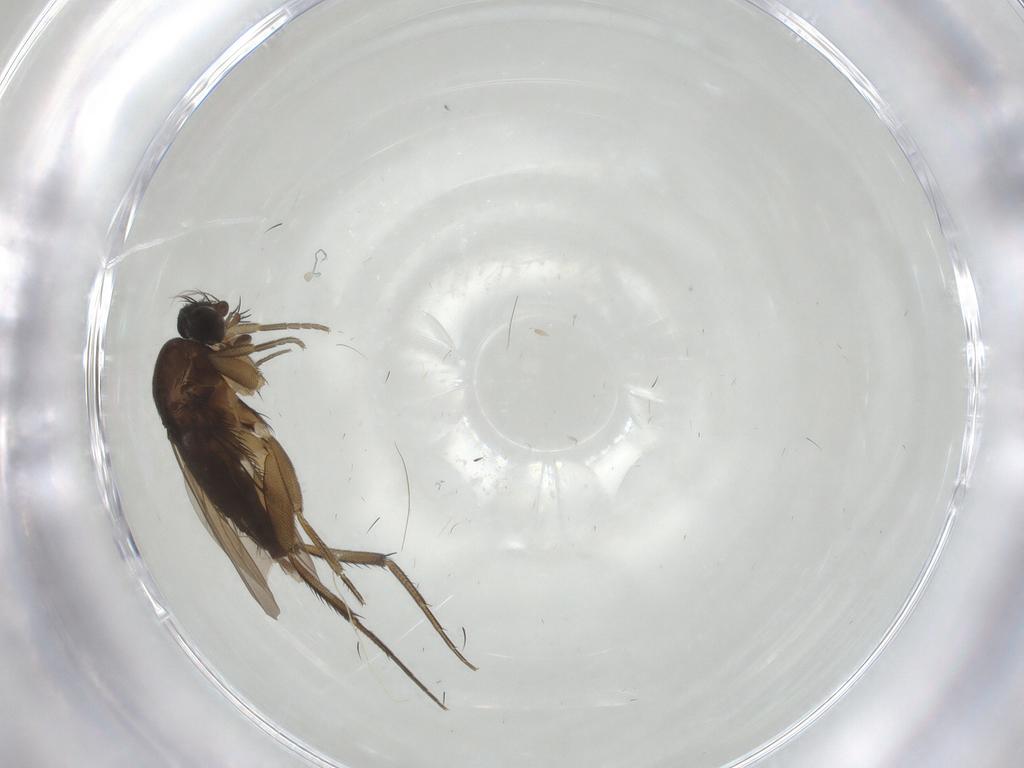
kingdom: Animalia
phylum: Arthropoda
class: Insecta
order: Diptera
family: Phoridae
